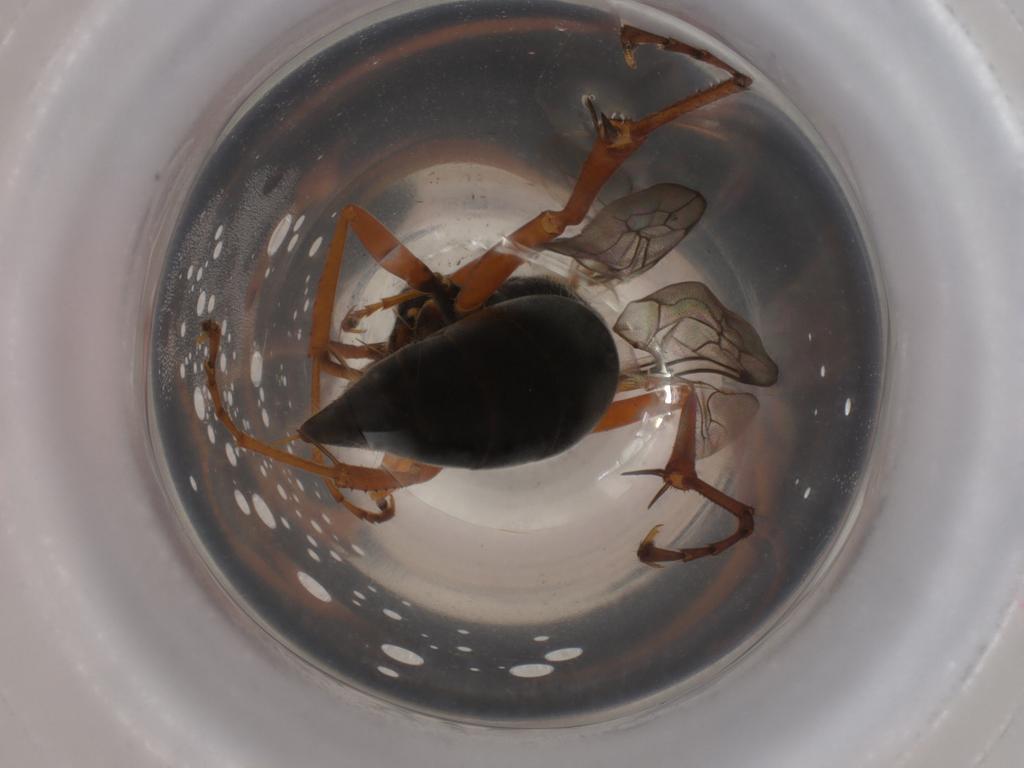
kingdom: Animalia
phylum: Arthropoda
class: Insecta
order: Hymenoptera
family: Pompilidae
